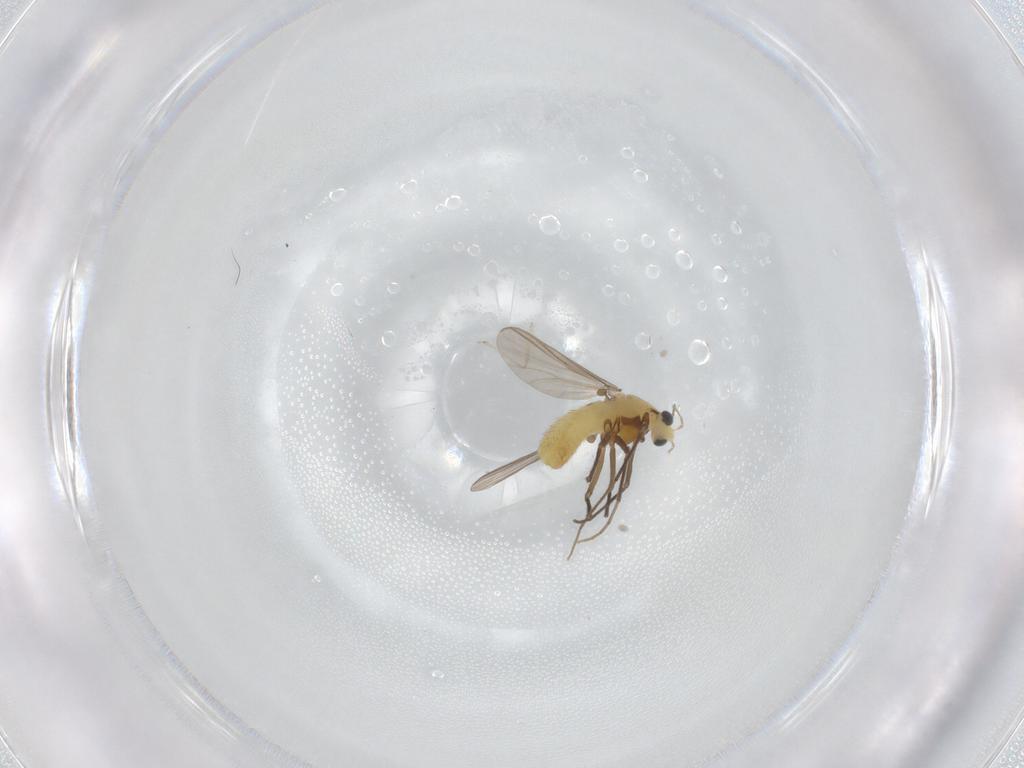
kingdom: Animalia
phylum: Arthropoda
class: Insecta
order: Diptera
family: Chironomidae
